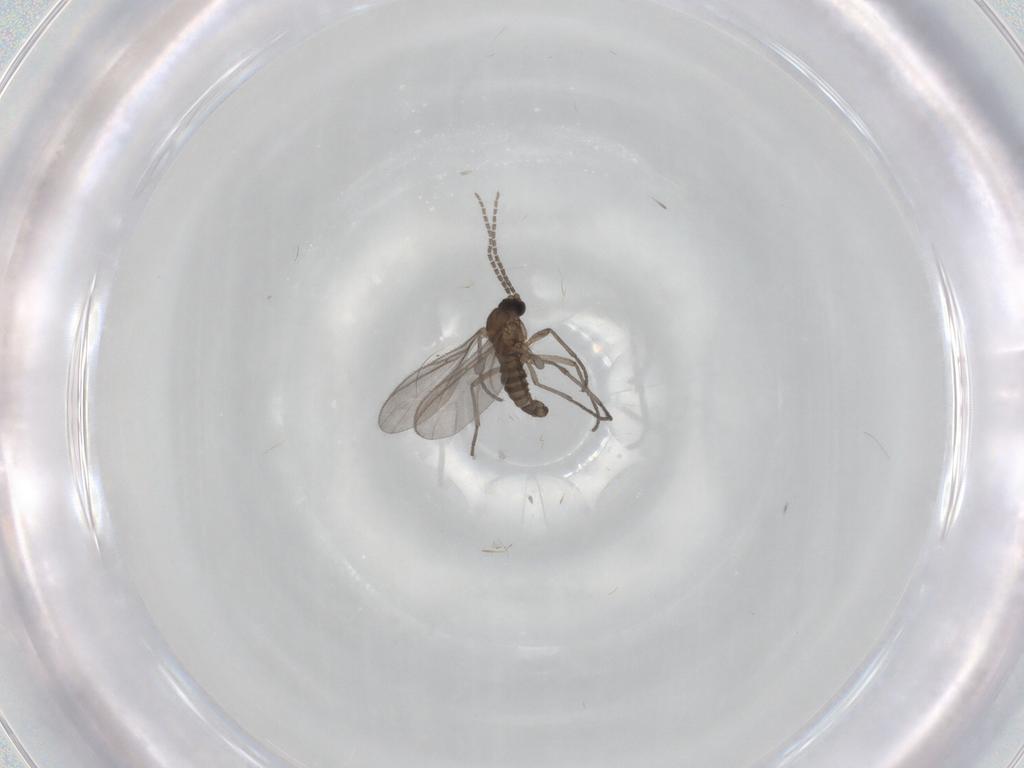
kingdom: Animalia
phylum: Arthropoda
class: Insecta
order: Diptera
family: Sciaridae
